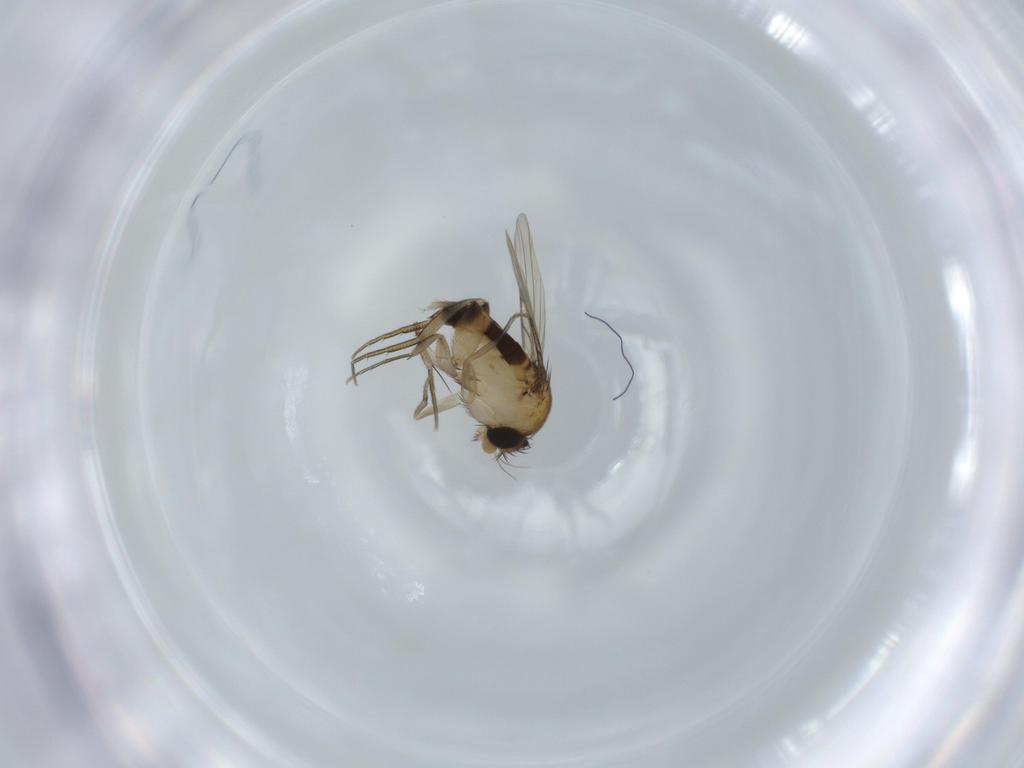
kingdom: Animalia
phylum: Arthropoda
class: Insecta
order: Diptera
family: Phoridae
